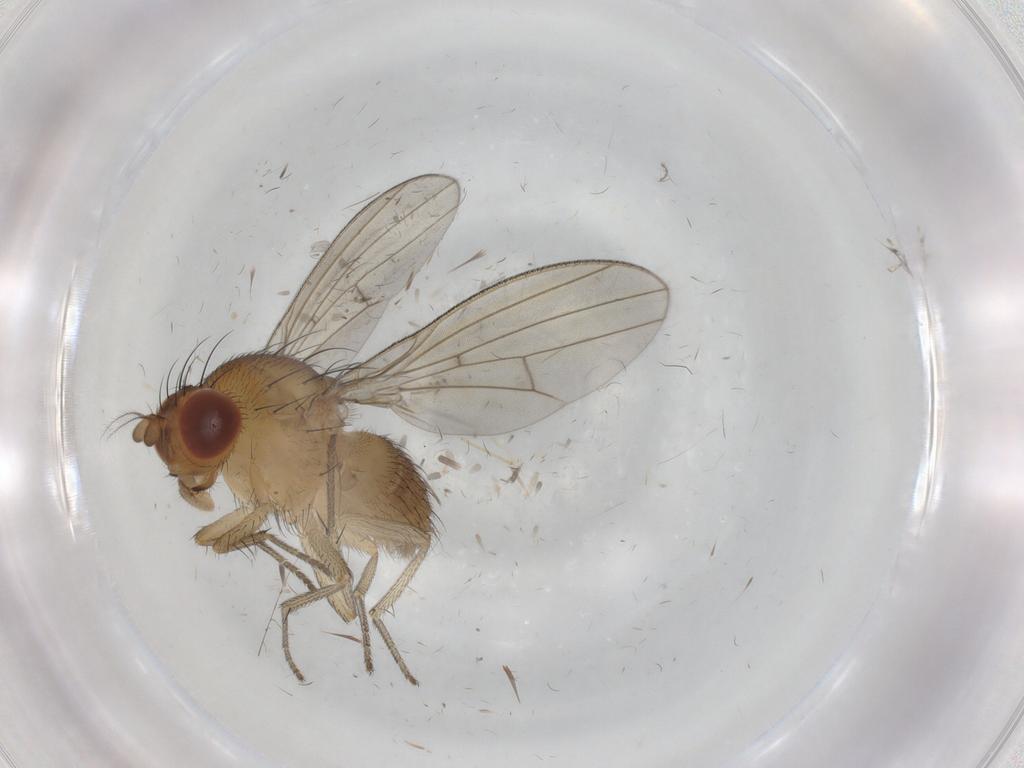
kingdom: Animalia
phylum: Arthropoda
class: Insecta
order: Diptera
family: Chironomidae
